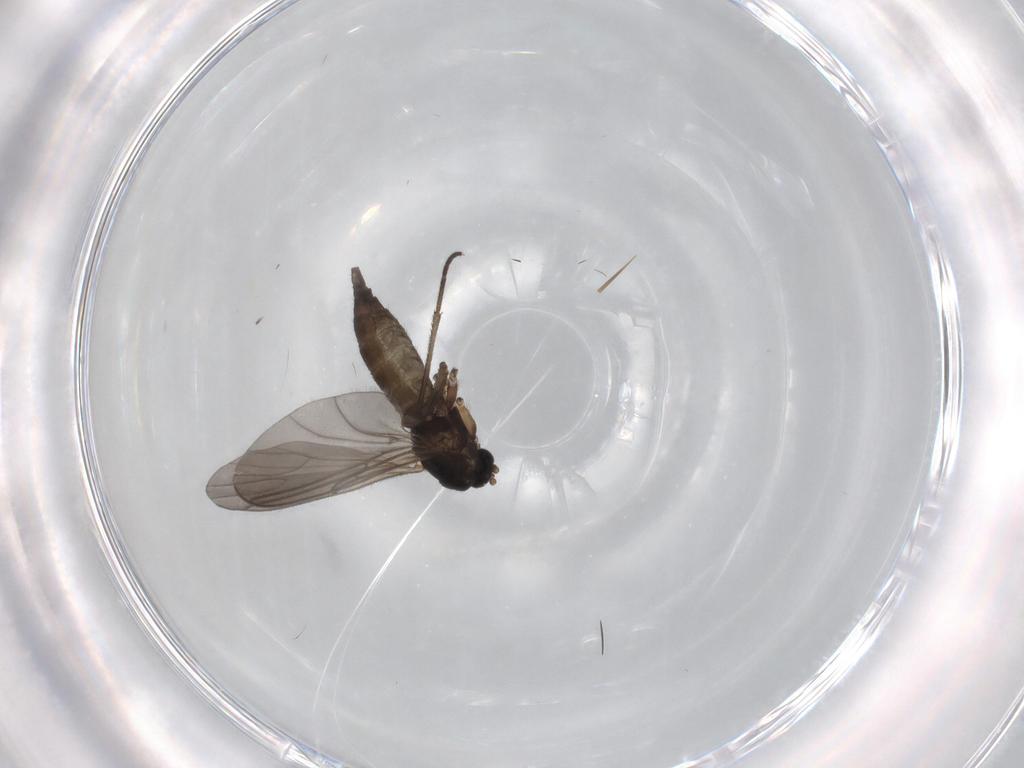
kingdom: Animalia
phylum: Arthropoda
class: Insecta
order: Diptera
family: Sciaridae
